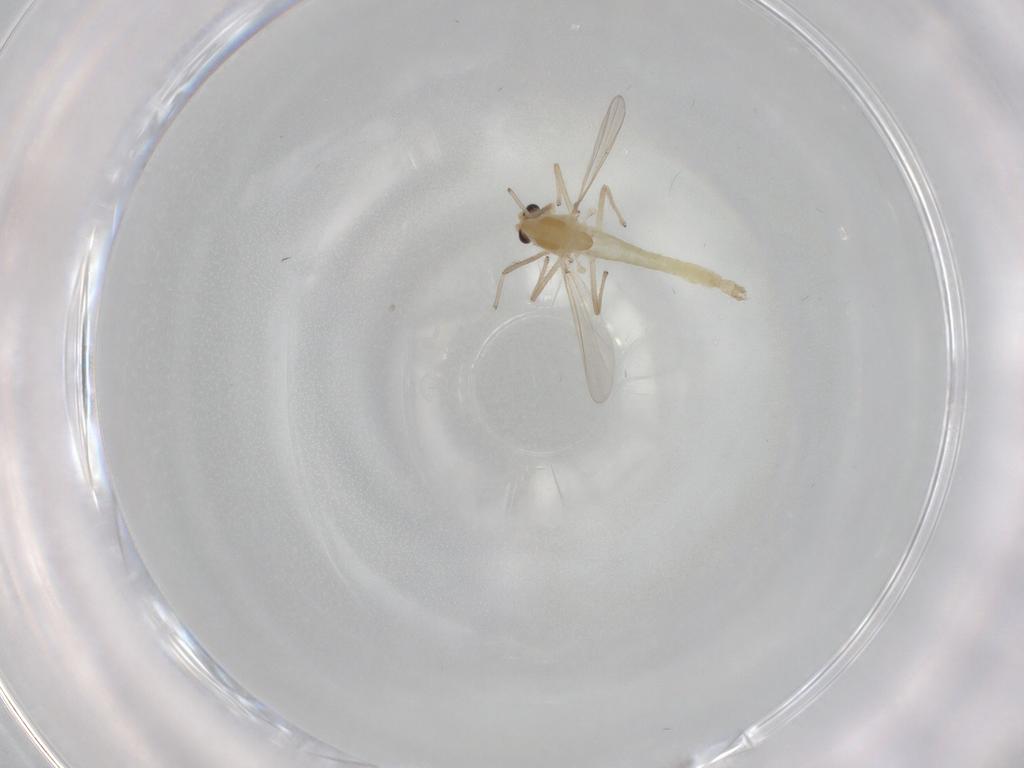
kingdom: Animalia
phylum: Arthropoda
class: Insecta
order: Diptera
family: Chironomidae
